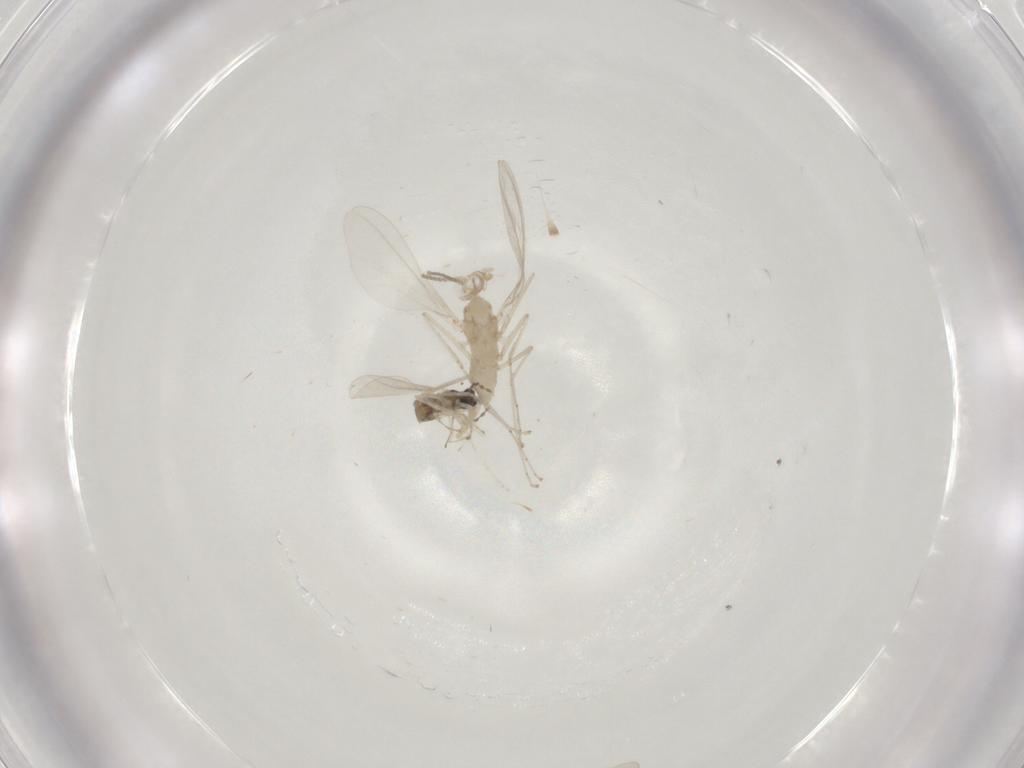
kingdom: Animalia
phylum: Arthropoda
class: Insecta
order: Diptera
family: Cecidomyiidae
